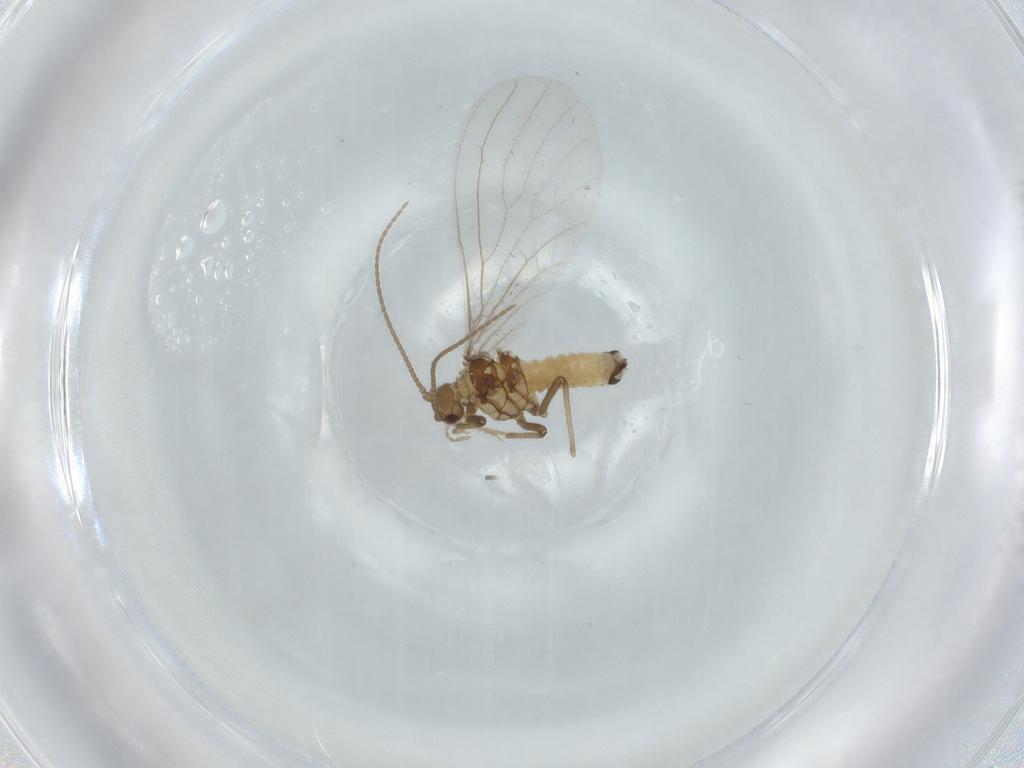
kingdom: Animalia
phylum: Arthropoda
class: Insecta
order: Neuroptera
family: Coniopterygidae
